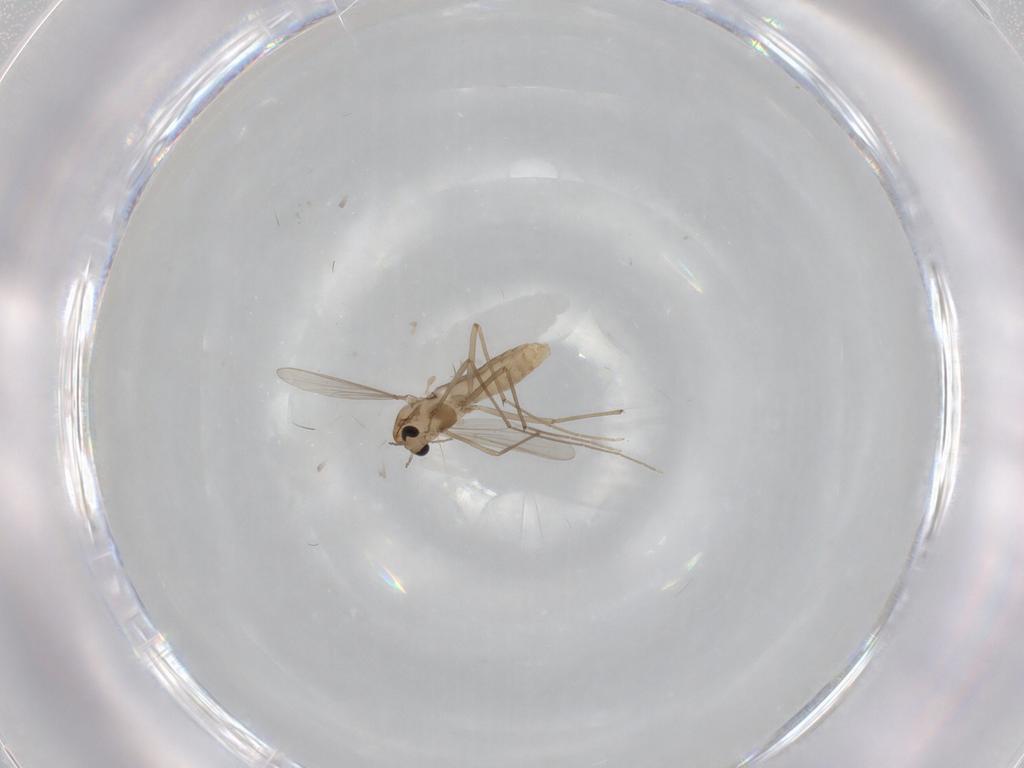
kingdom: Animalia
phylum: Arthropoda
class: Insecta
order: Diptera
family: Chironomidae
